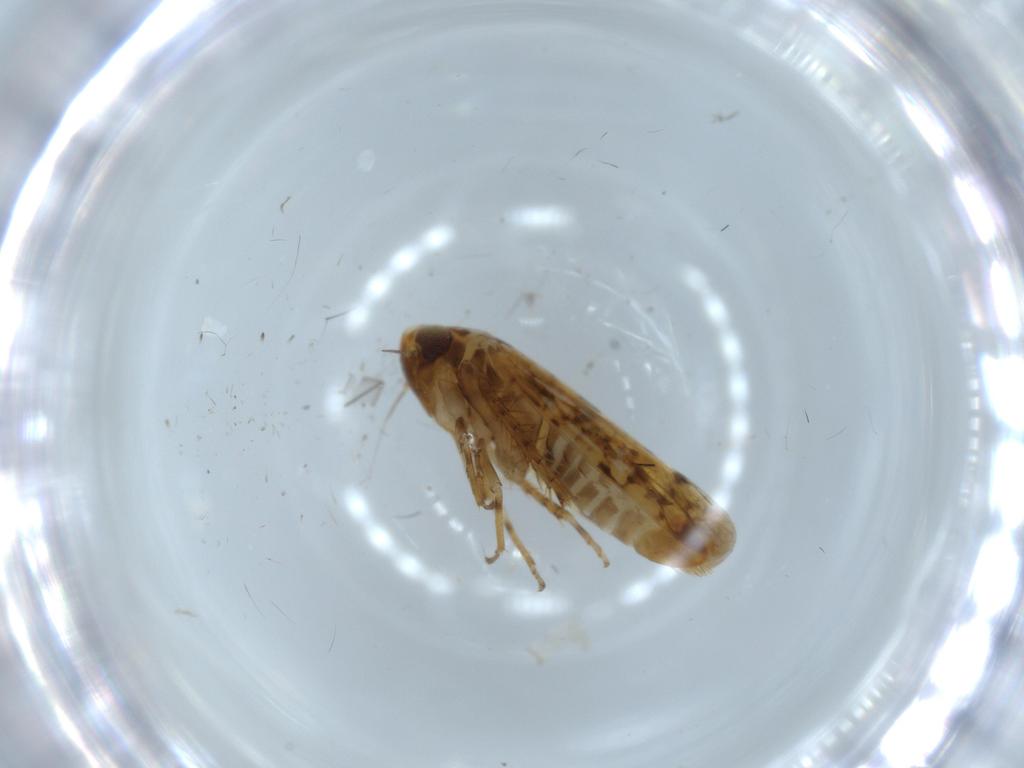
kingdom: Animalia
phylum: Arthropoda
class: Insecta
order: Hemiptera
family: Cicadellidae
